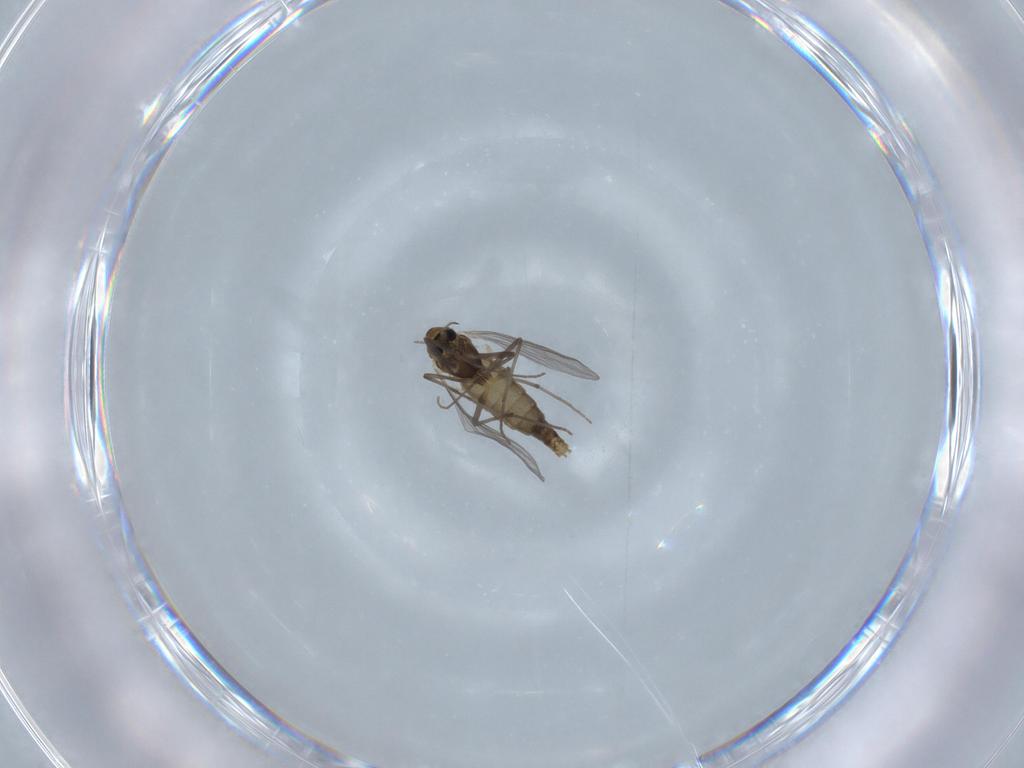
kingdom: Animalia
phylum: Arthropoda
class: Insecta
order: Diptera
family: Chironomidae
